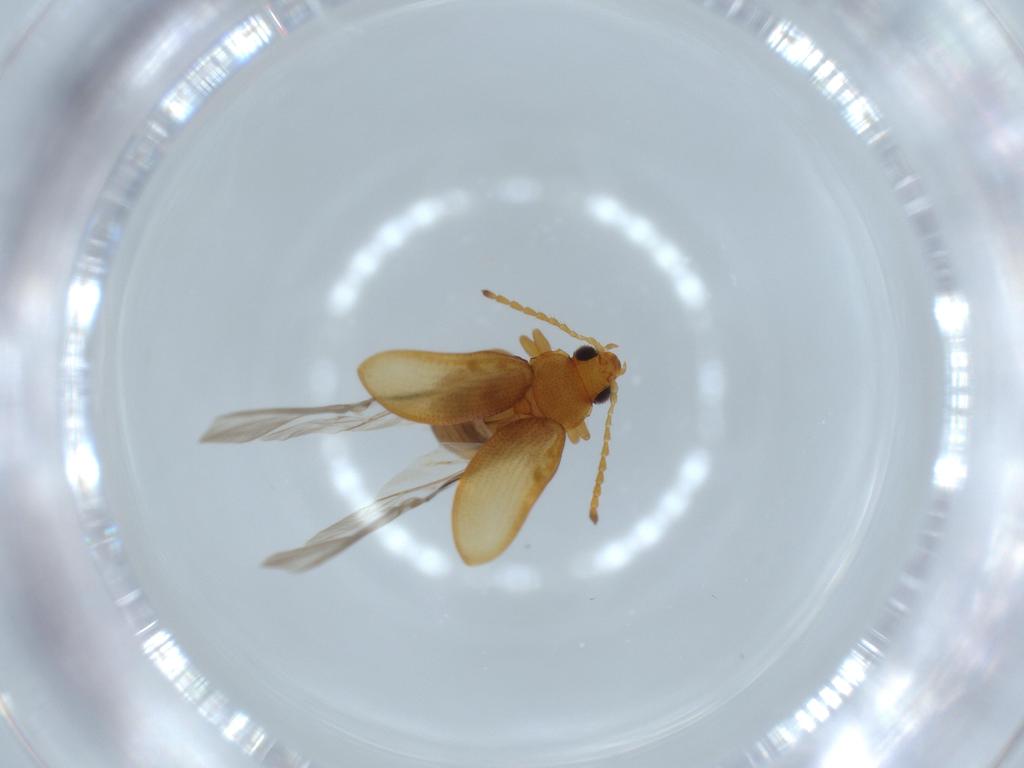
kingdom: Animalia
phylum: Arthropoda
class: Insecta
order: Coleoptera
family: Chrysomelidae
